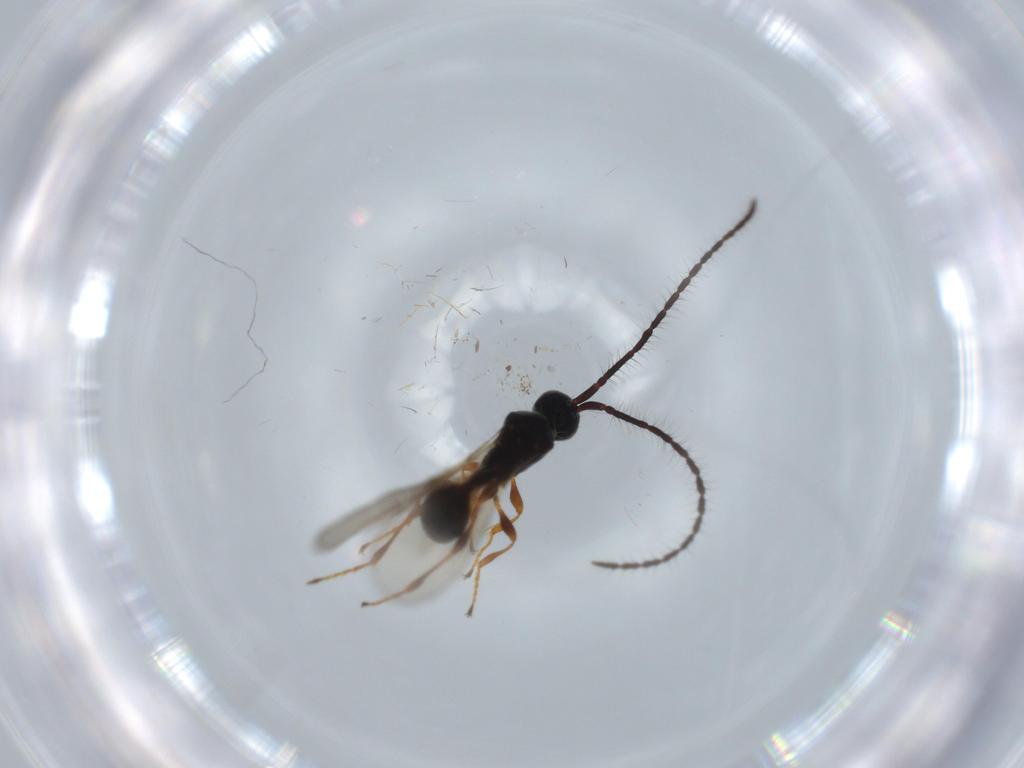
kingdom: Animalia
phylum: Arthropoda
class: Insecta
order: Hymenoptera
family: Diapriidae
